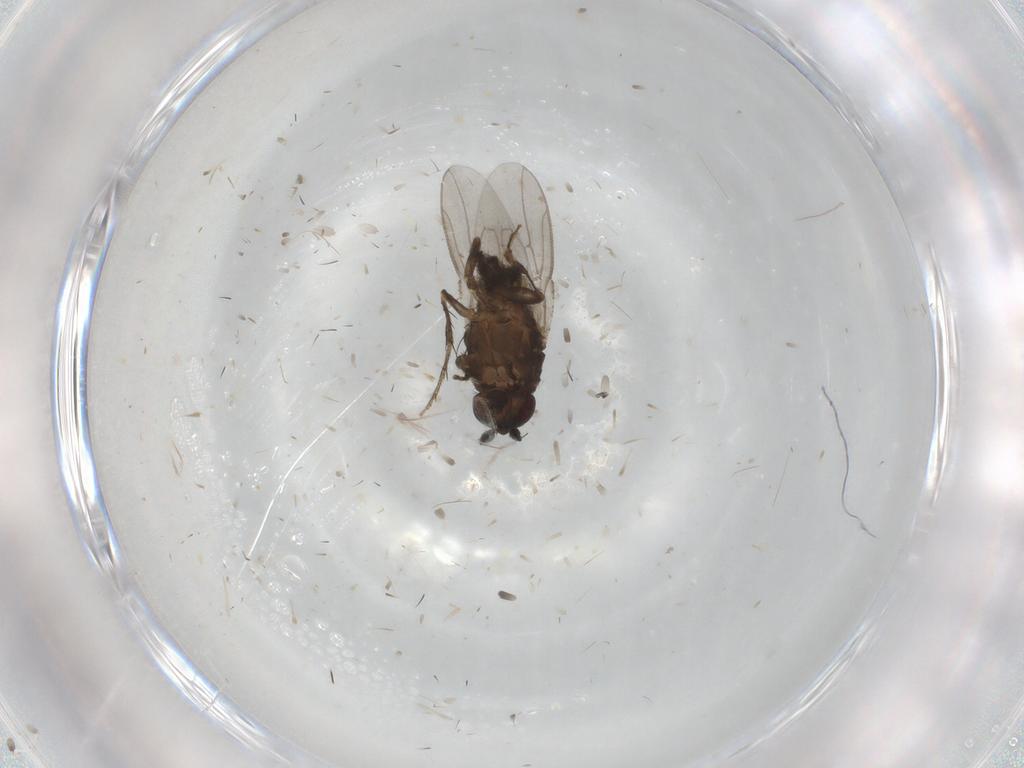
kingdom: Animalia
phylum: Arthropoda
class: Insecta
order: Diptera
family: Sphaeroceridae
